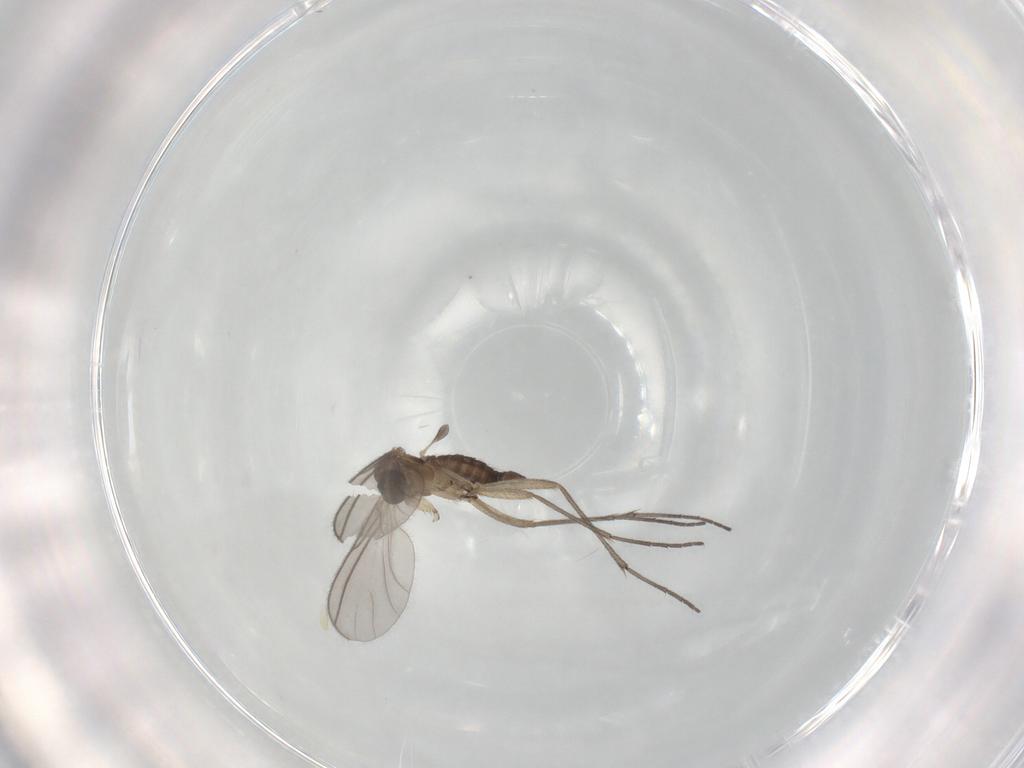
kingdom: Animalia
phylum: Arthropoda
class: Insecta
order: Diptera
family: Sciaridae
